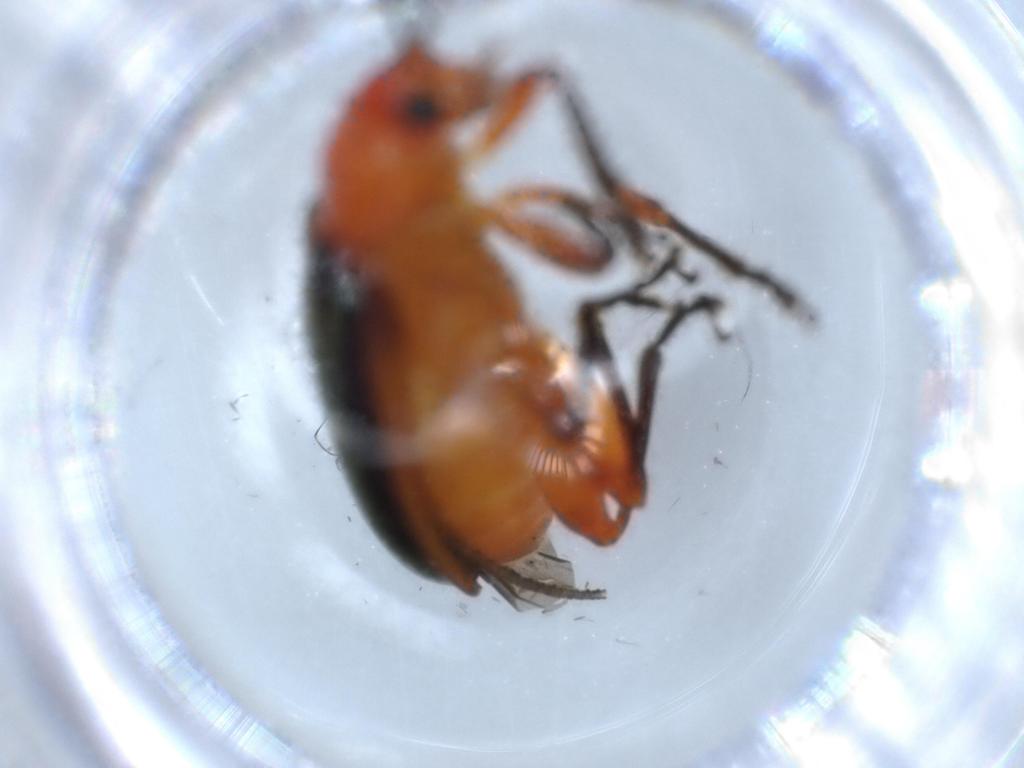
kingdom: Animalia
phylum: Arthropoda
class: Insecta
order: Coleoptera
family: Chrysomelidae
